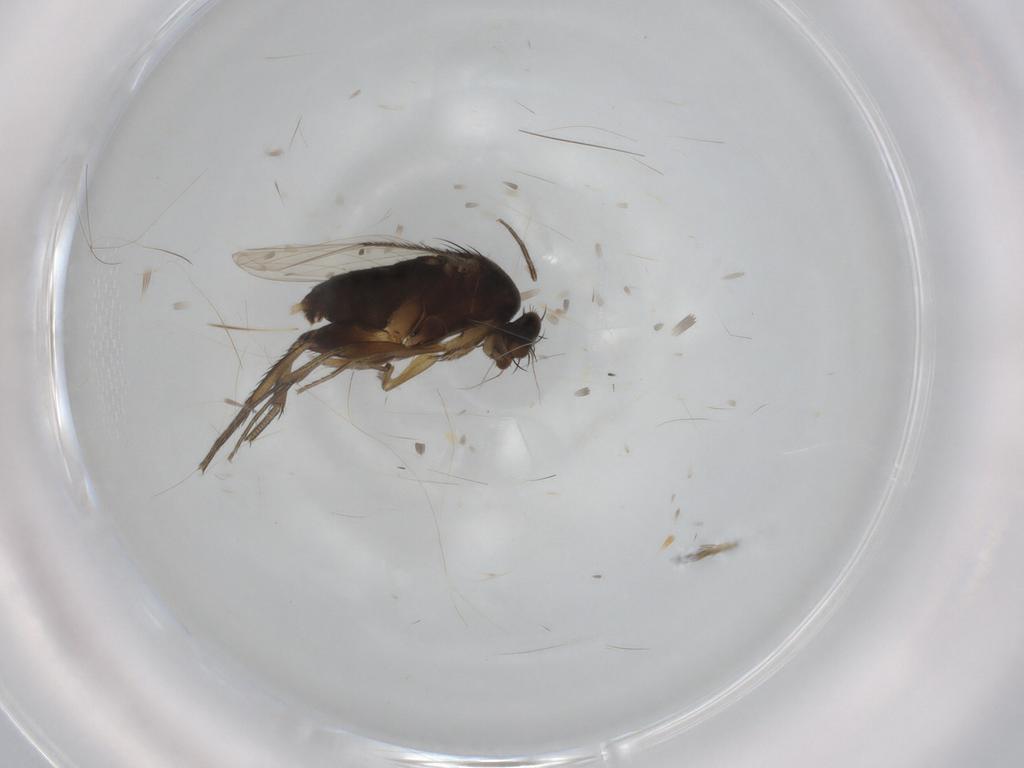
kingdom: Animalia
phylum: Arthropoda
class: Insecta
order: Diptera
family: Phoridae
